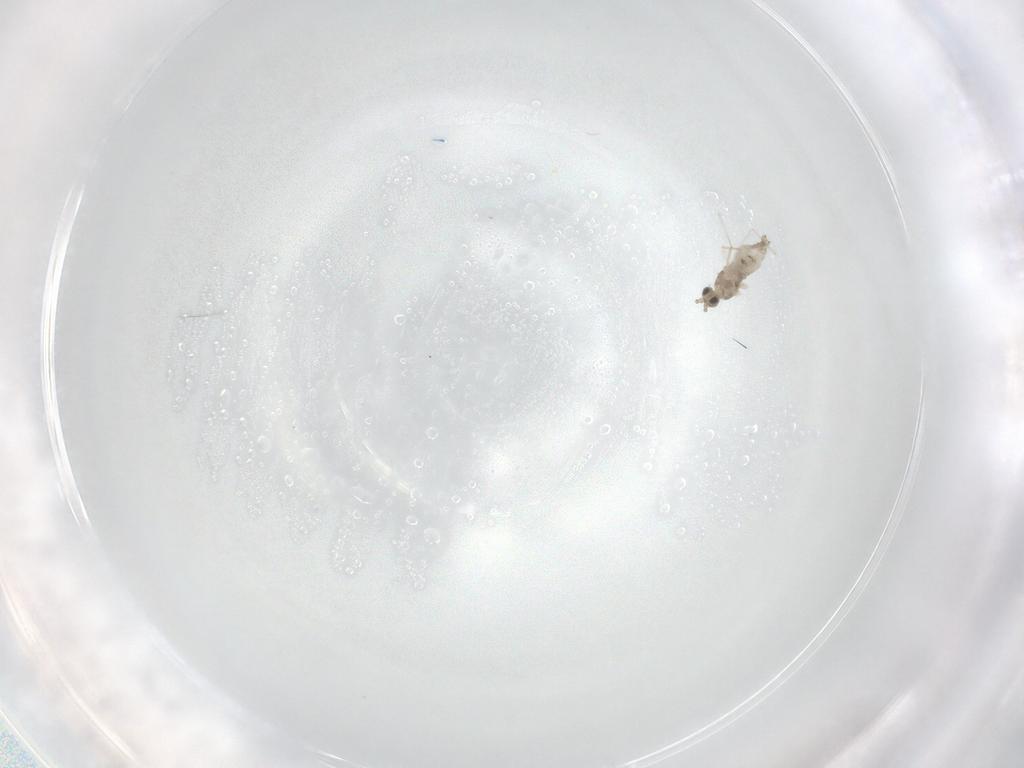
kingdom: Animalia
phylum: Arthropoda
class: Insecta
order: Diptera
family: Cecidomyiidae
